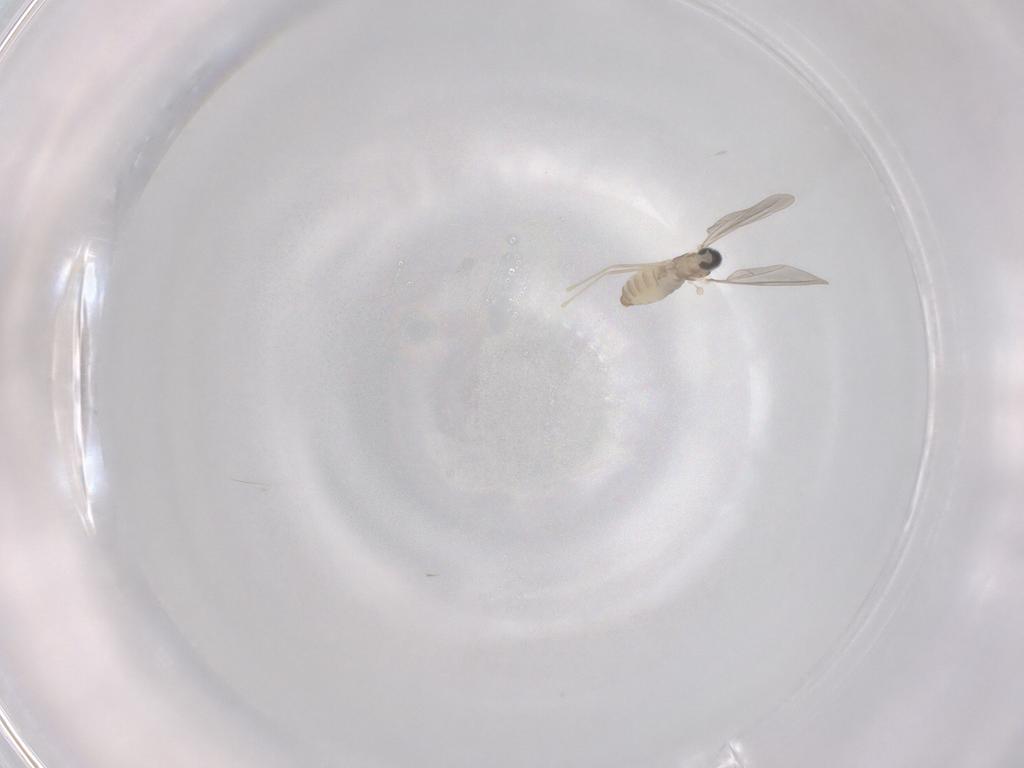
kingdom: Animalia
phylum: Arthropoda
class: Insecta
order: Diptera
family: Cecidomyiidae
